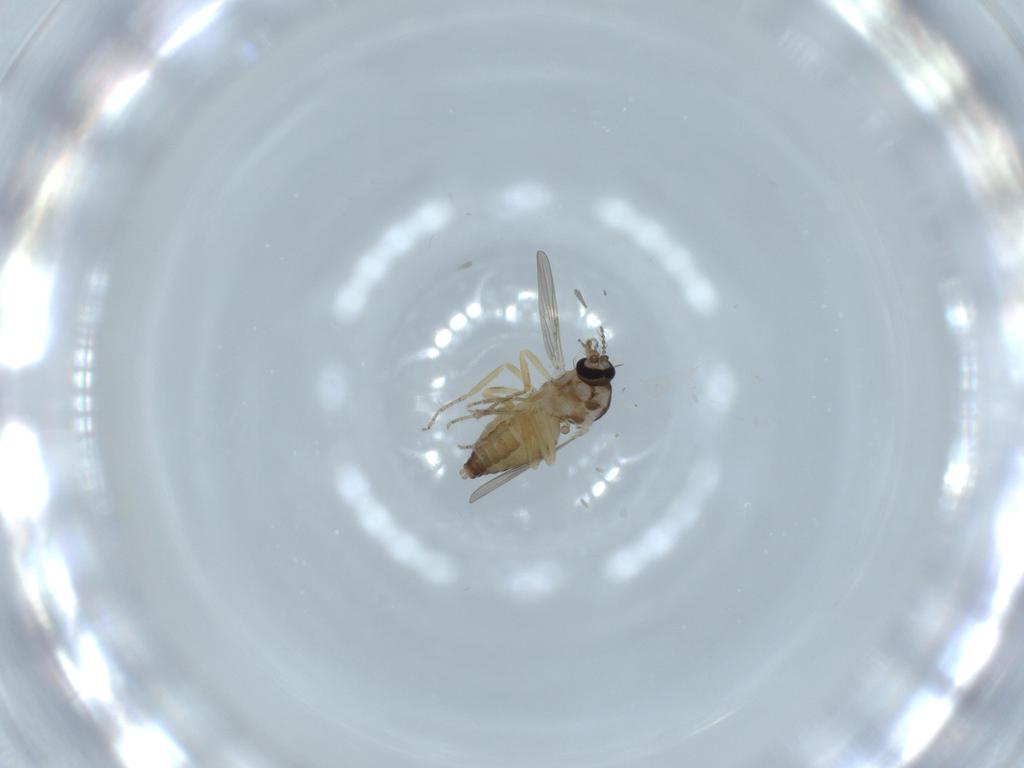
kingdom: Animalia
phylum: Arthropoda
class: Insecta
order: Diptera
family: Ceratopogonidae
